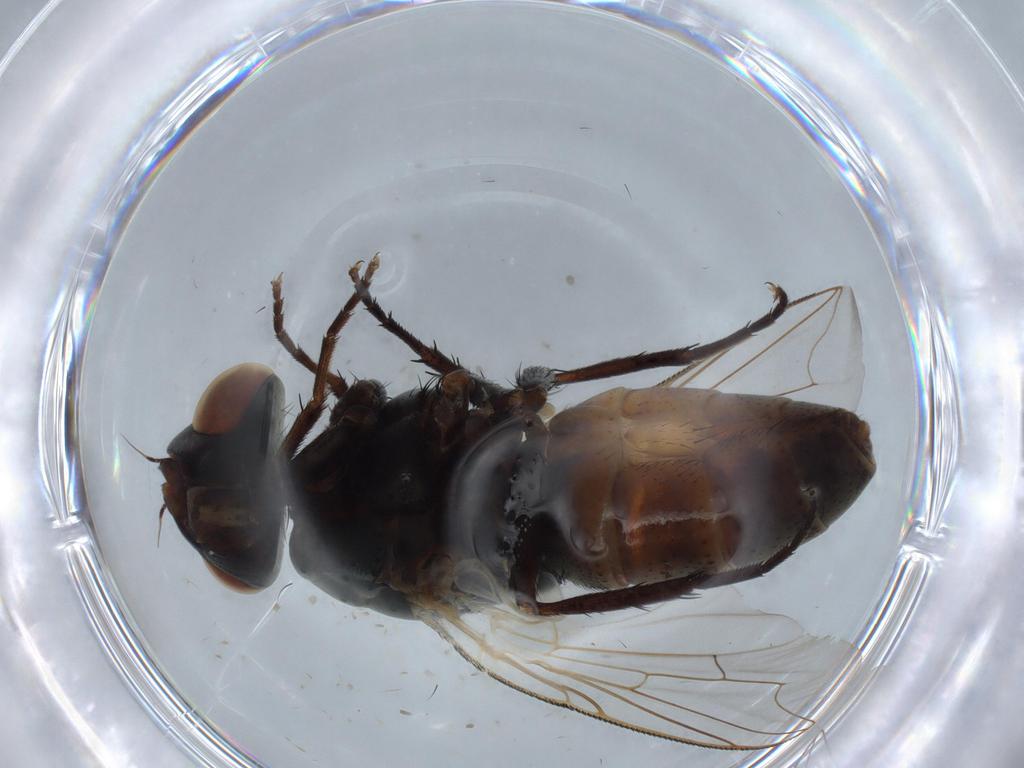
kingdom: Animalia
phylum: Arthropoda
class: Insecta
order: Diptera
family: Sarcophagidae
